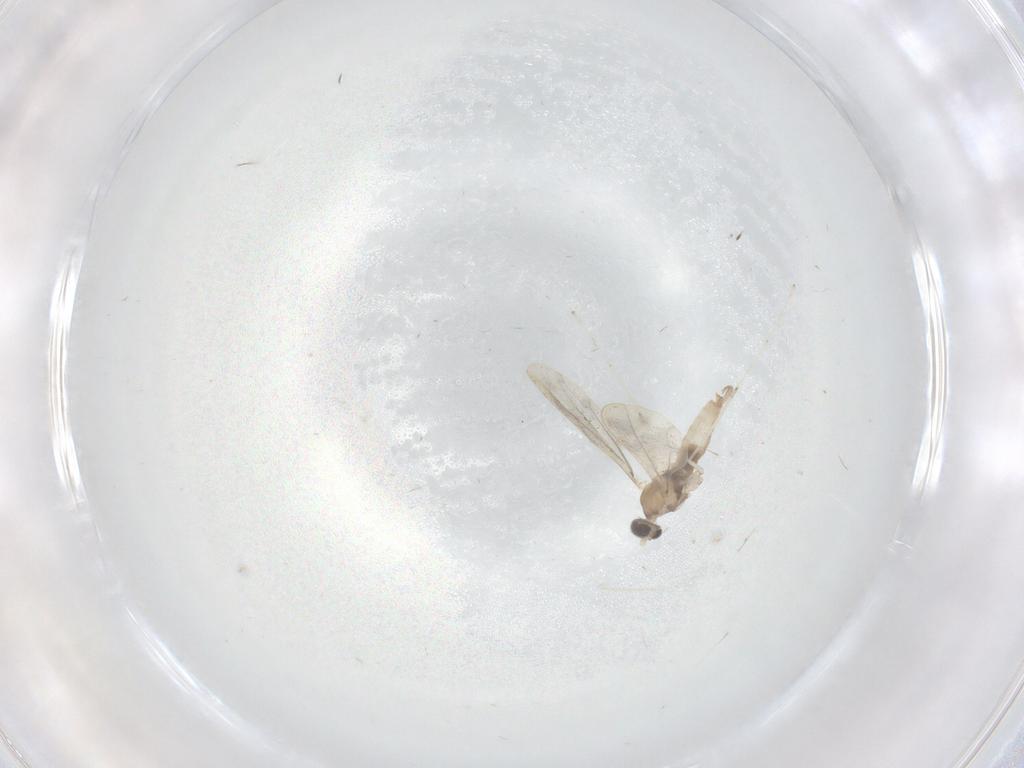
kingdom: Animalia
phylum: Arthropoda
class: Insecta
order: Diptera
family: Cecidomyiidae
